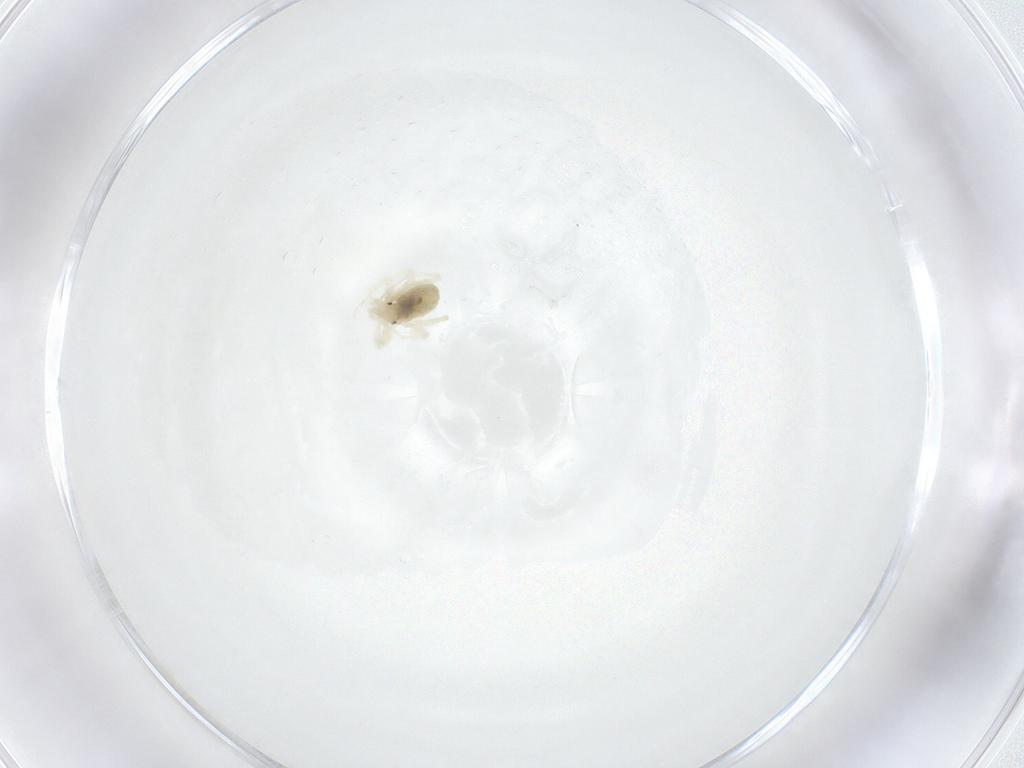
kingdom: Animalia
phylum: Arthropoda
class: Arachnida
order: Trombidiformes
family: Anystidae
